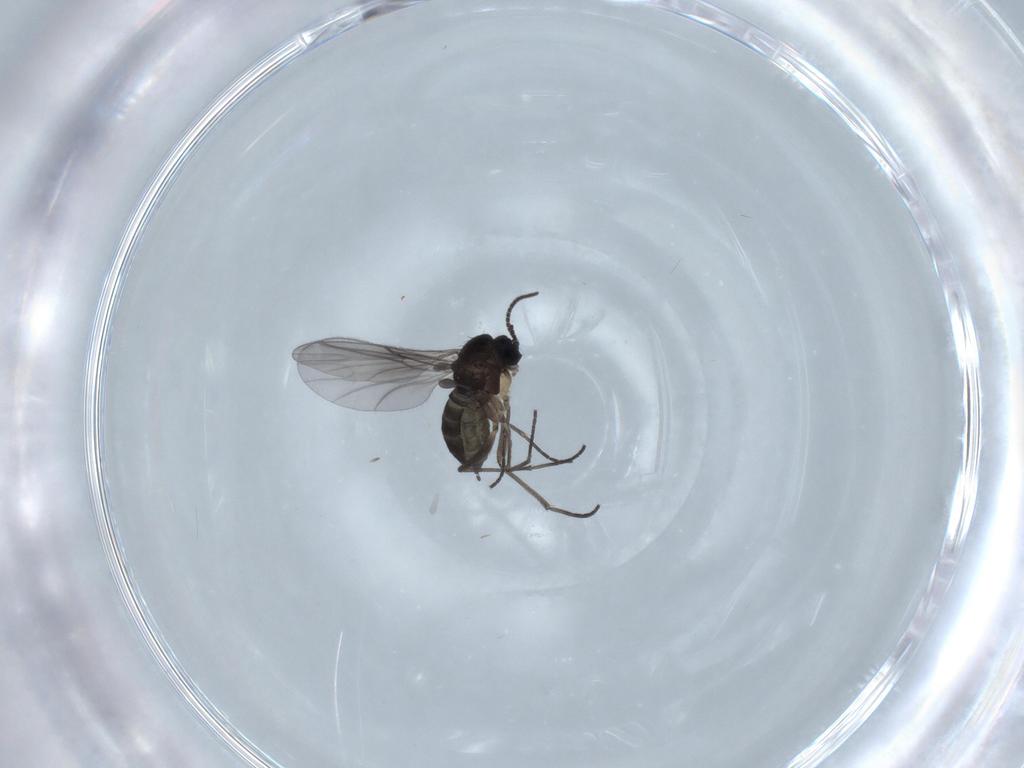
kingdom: Animalia
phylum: Arthropoda
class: Insecta
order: Diptera
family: Sciaridae
